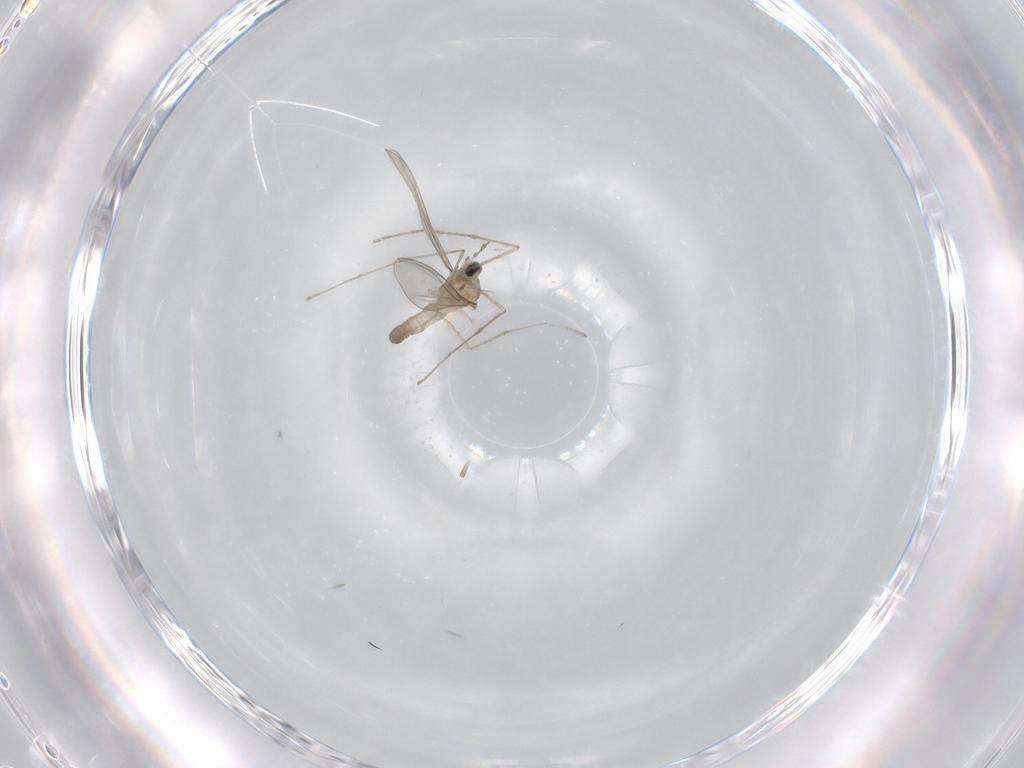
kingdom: Animalia
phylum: Arthropoda
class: Insecta
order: Diptera
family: Cecidomyiidae
